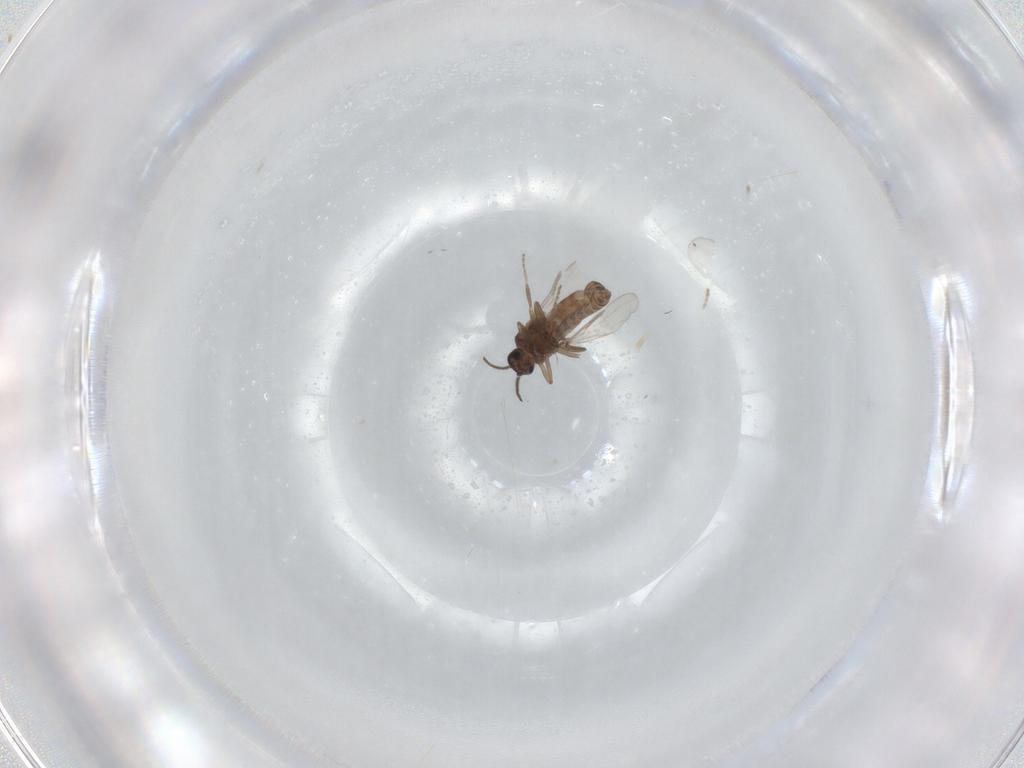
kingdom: Animalia
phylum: Arthropoda
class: Insecta
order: Diptera
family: Ceratopogonidae
